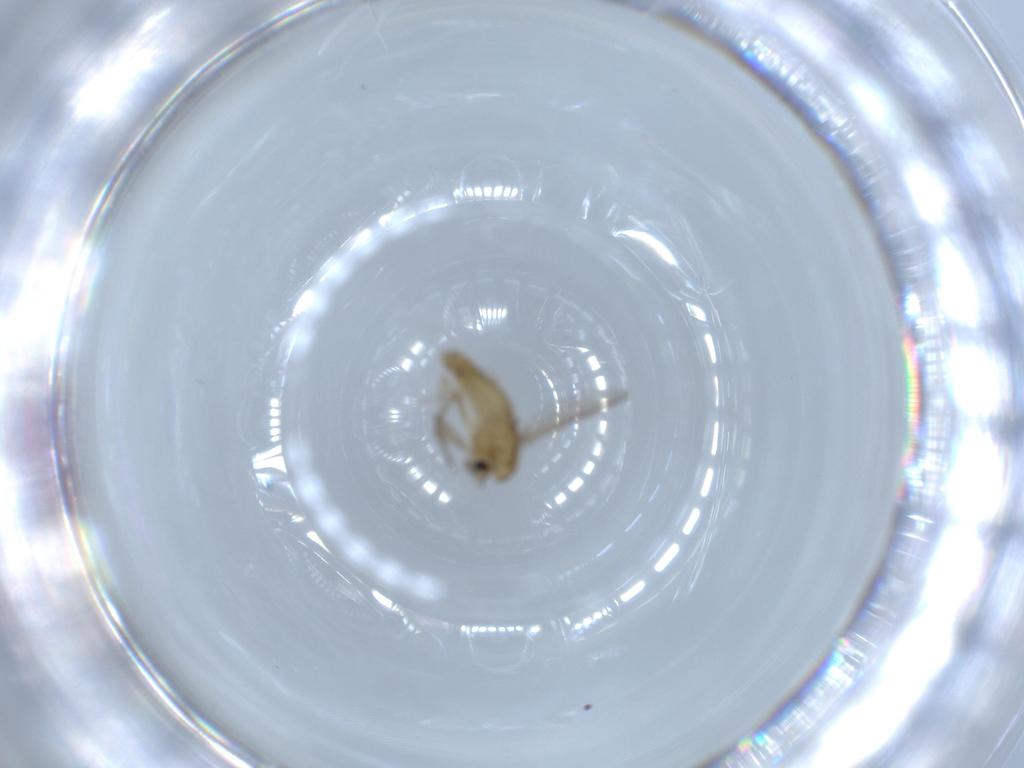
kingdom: Animalia
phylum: Arthropoda
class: Insecta
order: Diptera
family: Chironomidae
